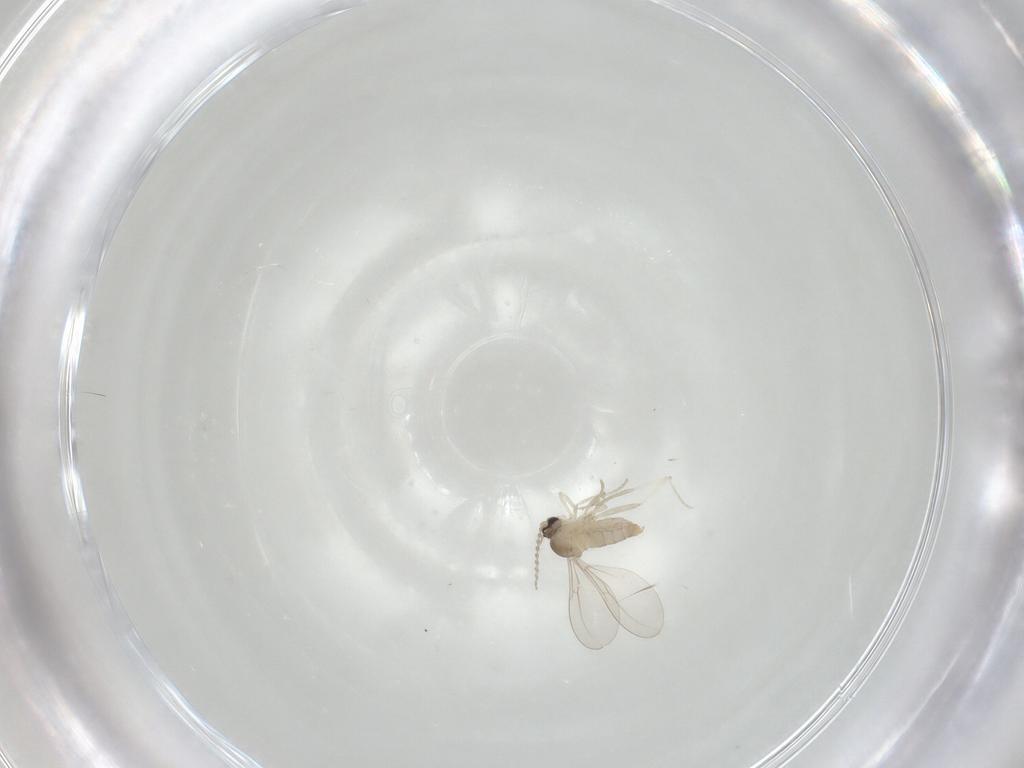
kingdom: Animalia
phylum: Arthropoda
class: Insecta
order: Diptera
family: Cecidomyiidae
